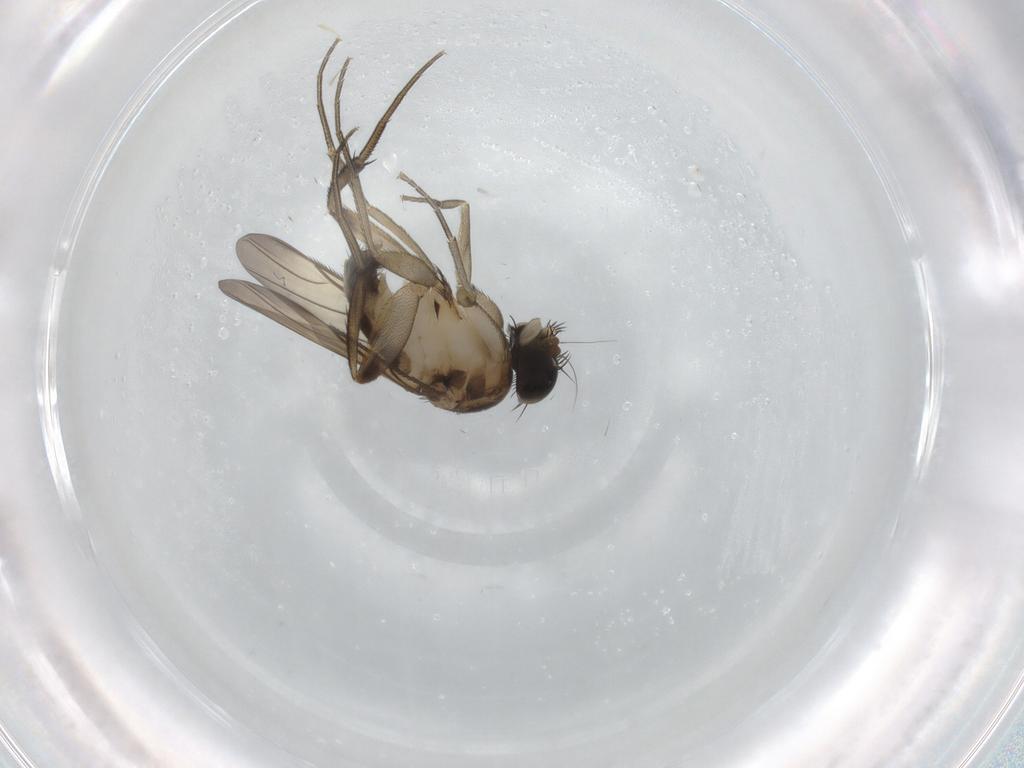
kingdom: Animalia
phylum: Arthropoda
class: Insecta
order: Diptera
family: Phoridae
